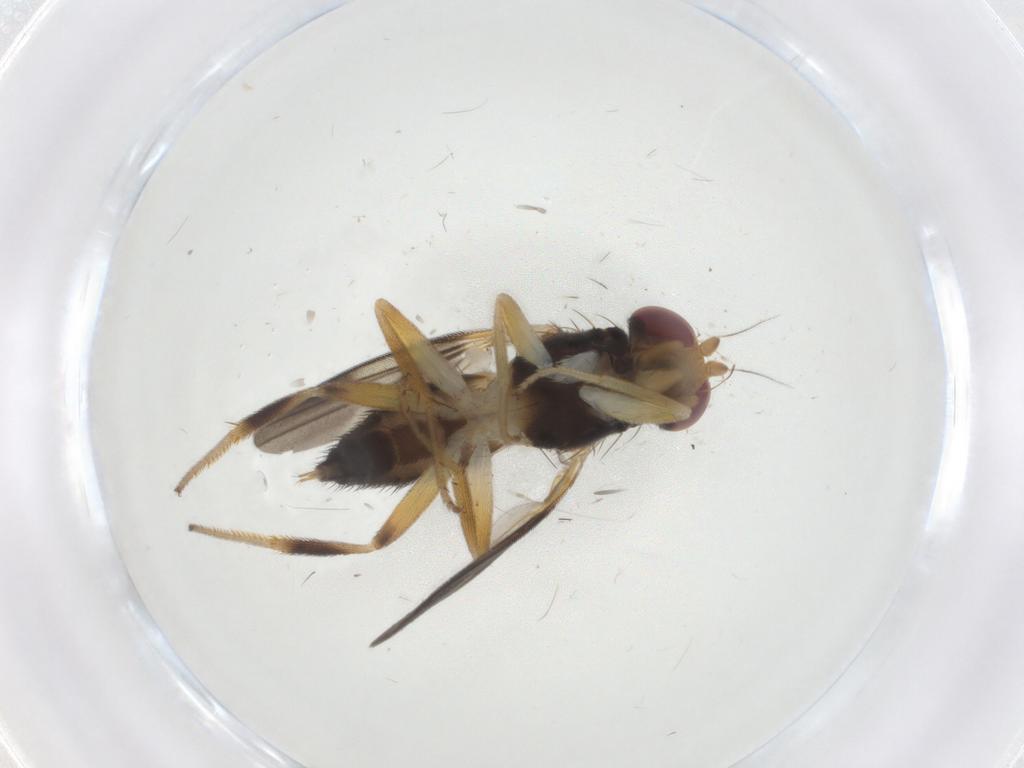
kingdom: Animalia
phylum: Arthropoda
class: Insecta
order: Diptera
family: Clusiidae
